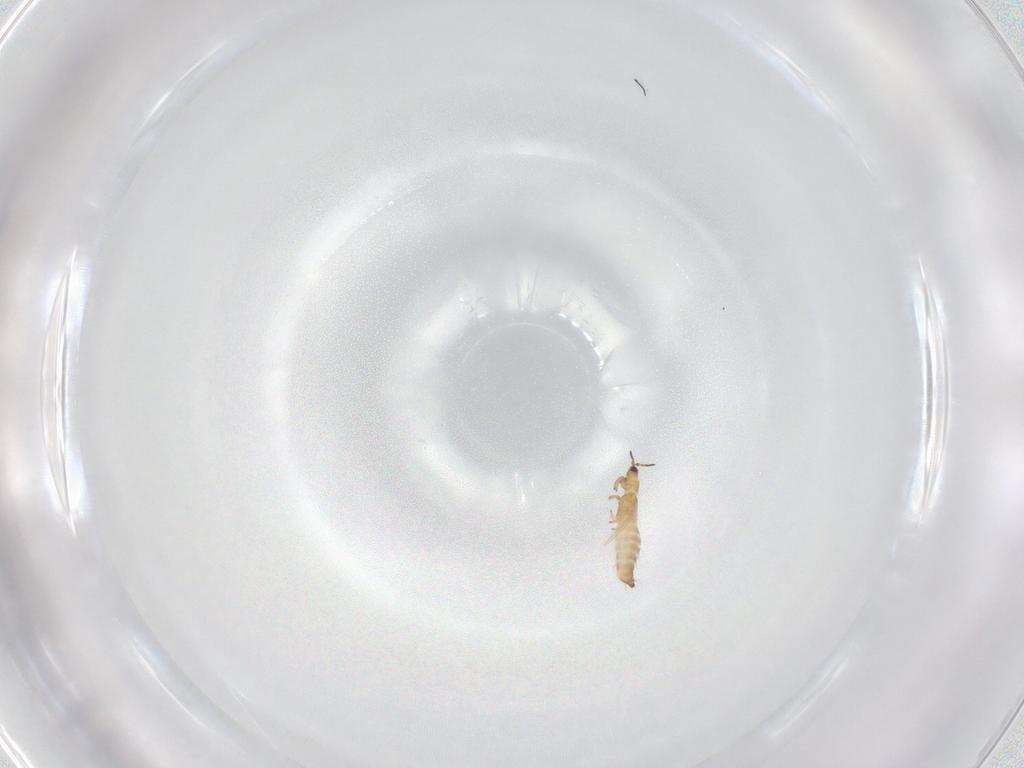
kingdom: Animalia
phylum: Arthropoda
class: Insecta
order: Thysanoptera
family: Thripidae
